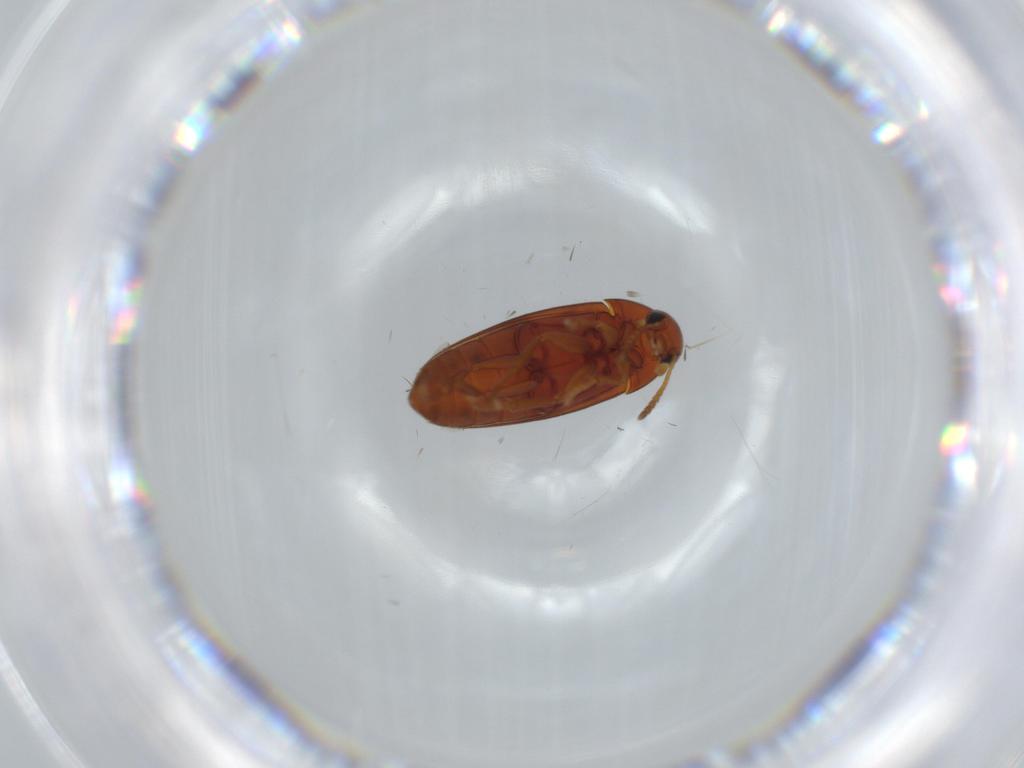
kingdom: Animalia
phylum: Arthropoda
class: Insecta
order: Coleoptera
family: Scraptiidae
